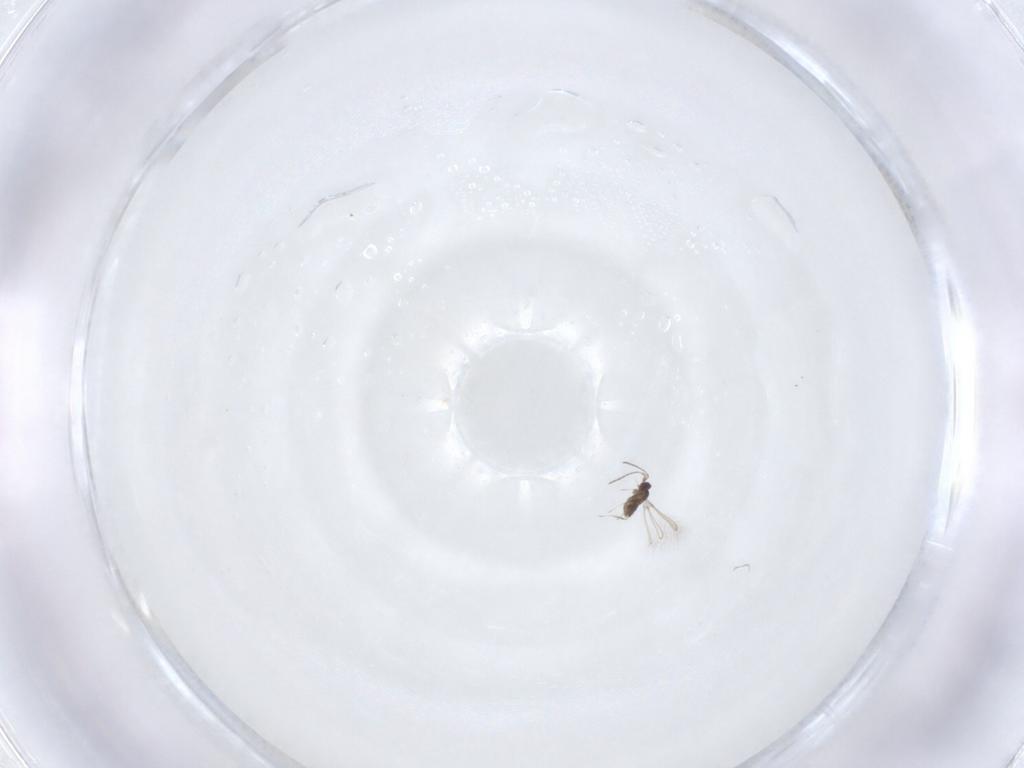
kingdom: Animalia
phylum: Arthropoda
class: Insecta
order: Hymenoptera
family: Mymaridae
